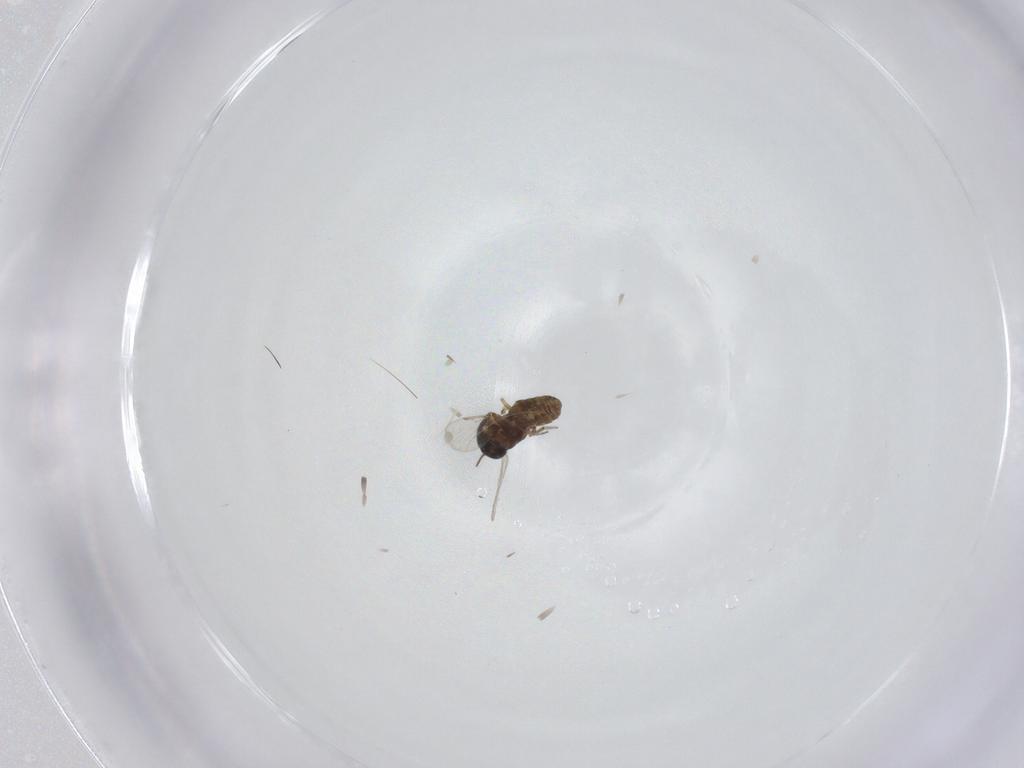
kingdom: Animalia
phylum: Arthropoda
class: Insecta
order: Diptera
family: Ceratopogonidae
